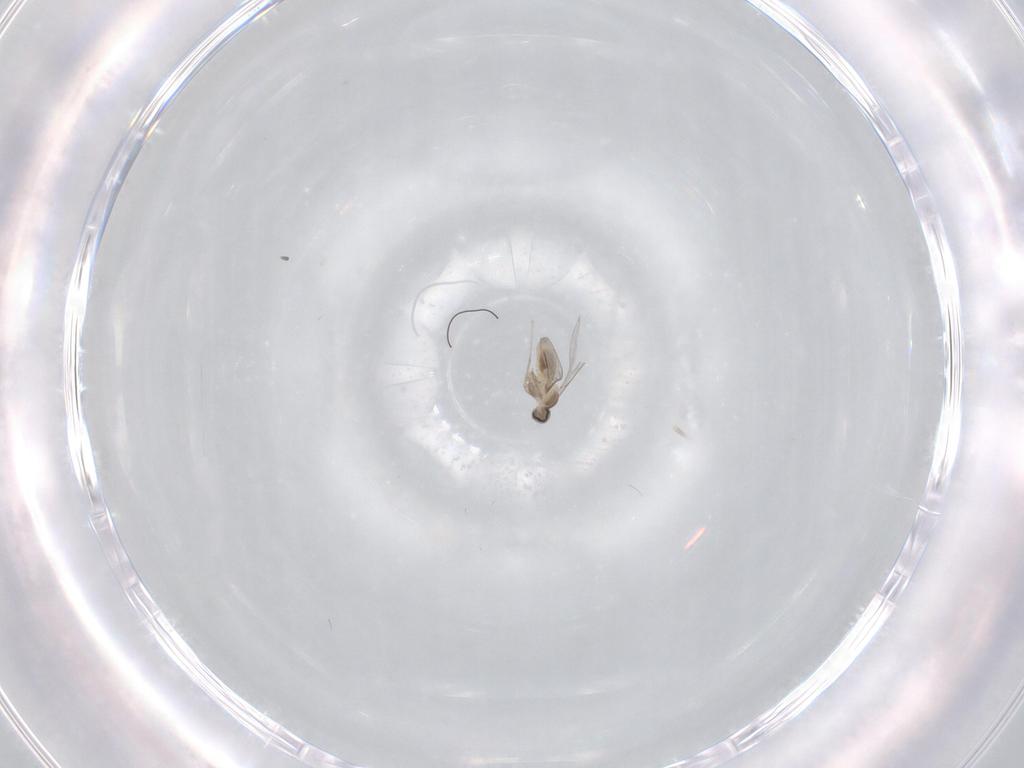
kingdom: Animalia
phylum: Arthropoda
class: Insecta
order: Diptera
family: Cecidomyiidae
